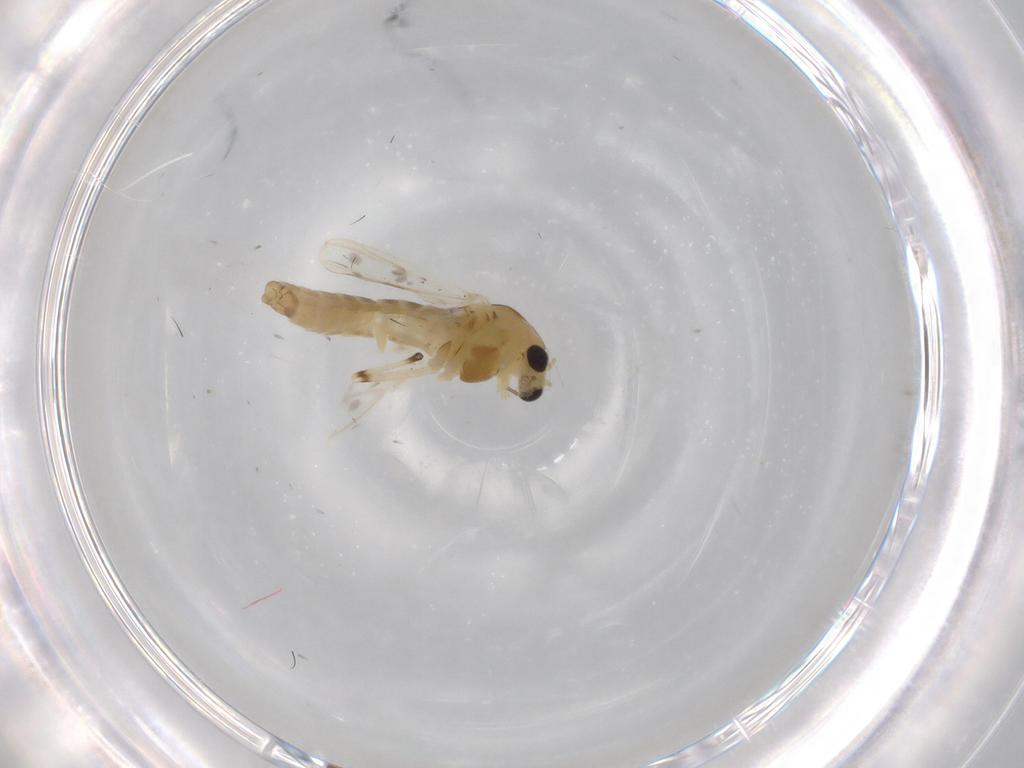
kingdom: Animalia
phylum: Arthropoda
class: Insecta
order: Diptera
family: Chironomidae
